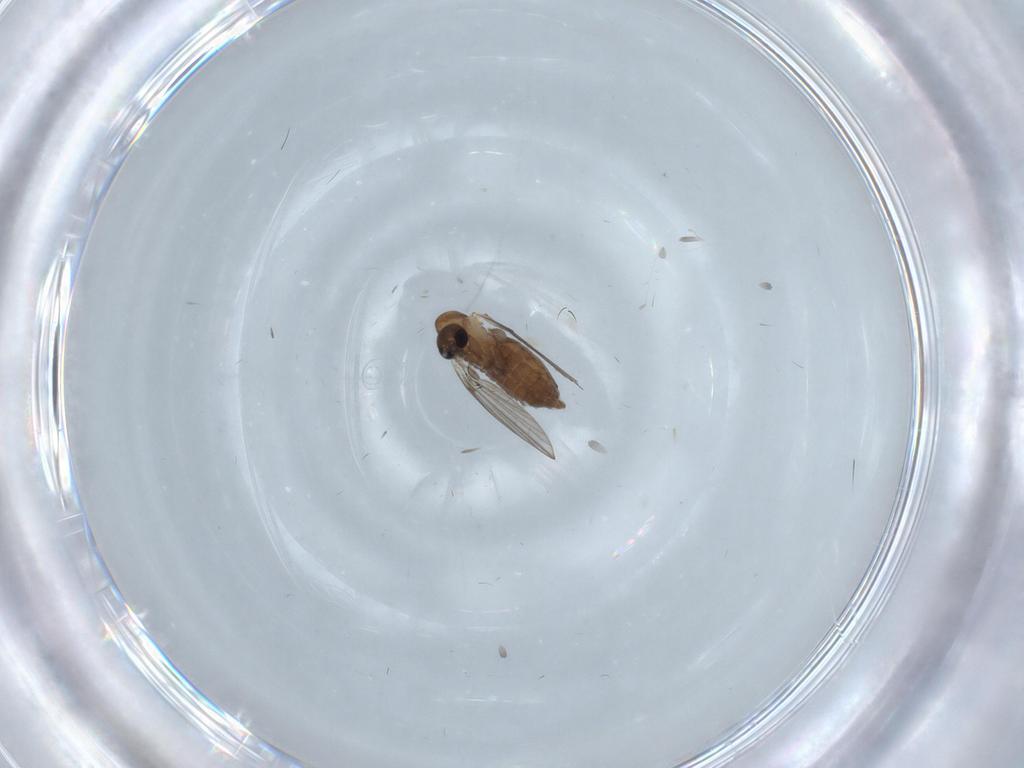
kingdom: Animalia
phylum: Arthropoda
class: Insecta
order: Diptera
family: Psychodidae
